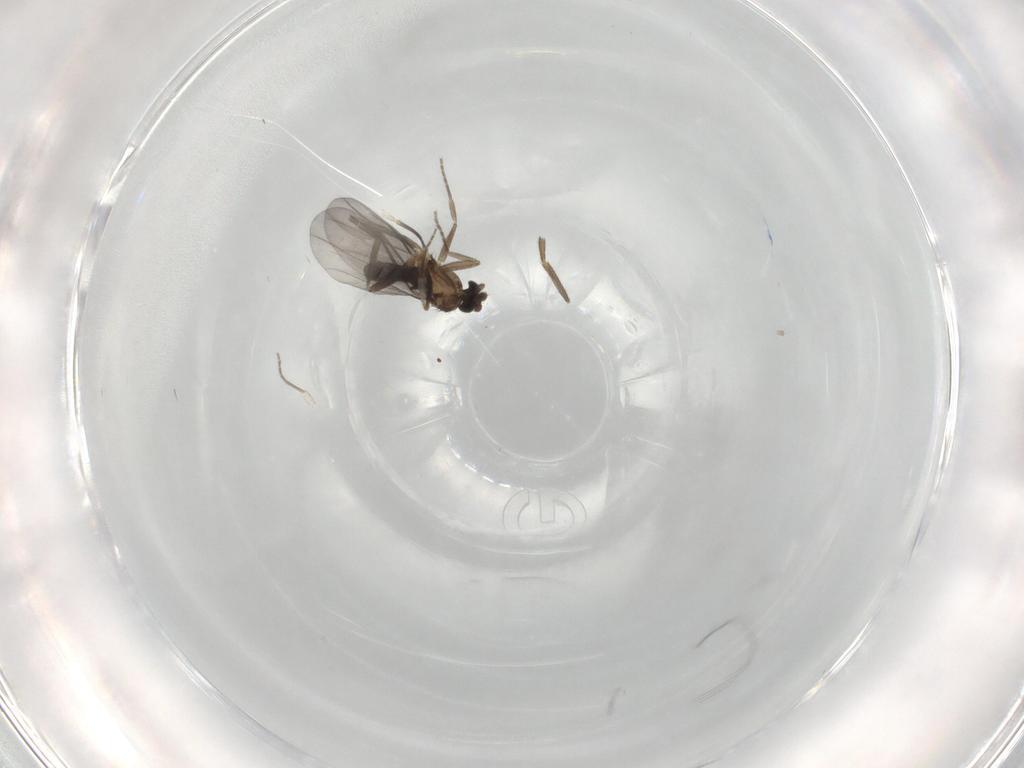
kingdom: Animalia
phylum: Arthropoda
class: Insecta
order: Diptera
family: Phoridae
